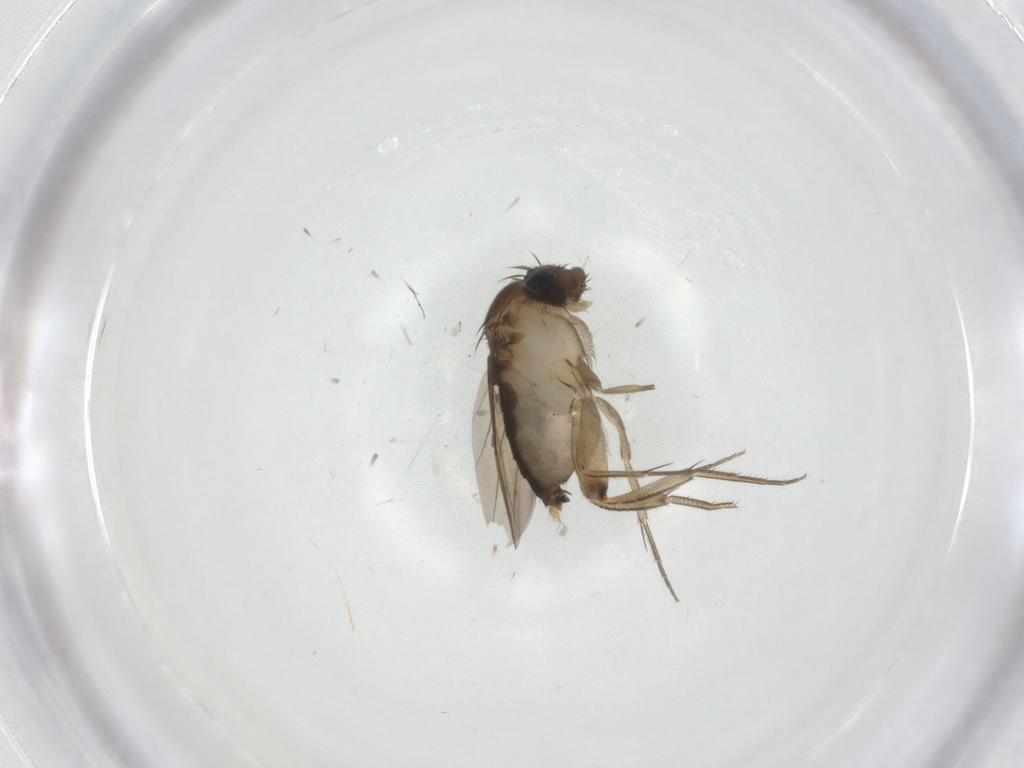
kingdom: Animalia
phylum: Arthropoda
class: Insecta
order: Diptera
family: Phoridae
